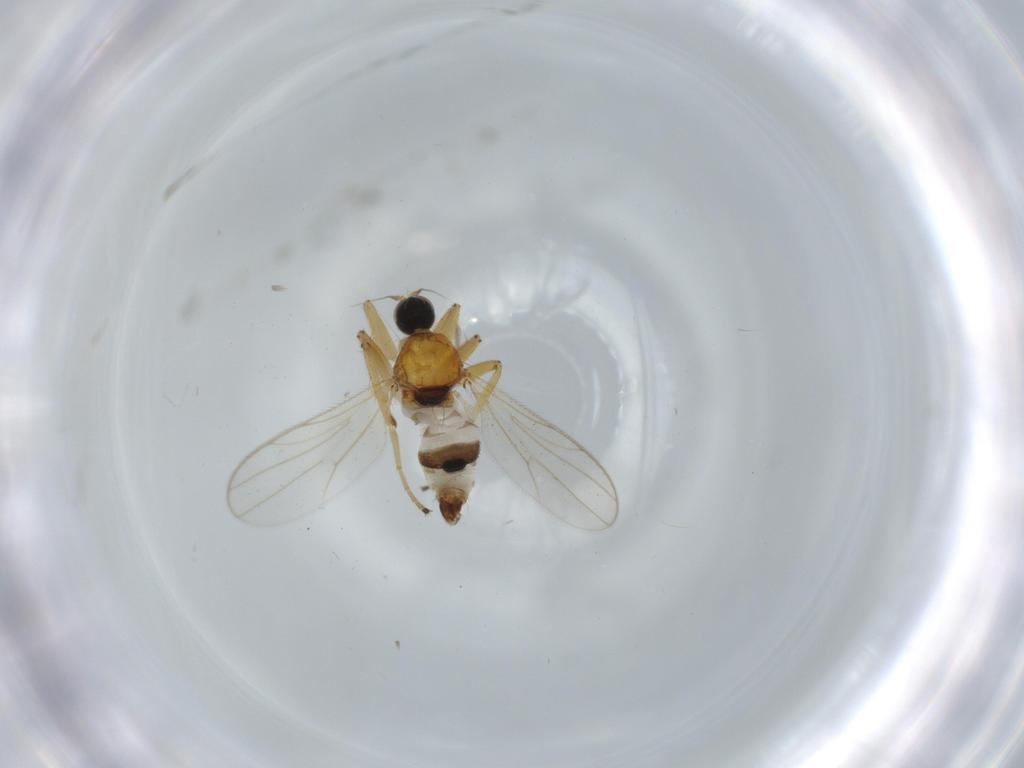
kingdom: Animalia
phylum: Arthropoda
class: Insecta
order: Diptera
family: Hybotidae
